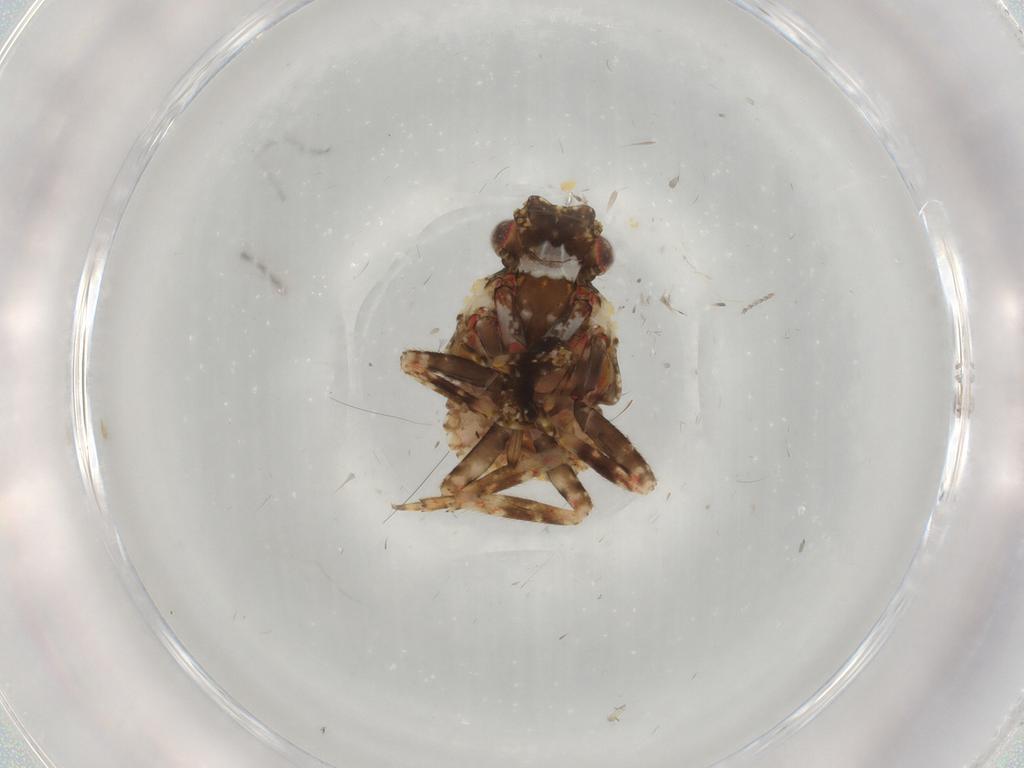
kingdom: Animalia
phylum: Arthropoda
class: Insecta
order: Hemiptera
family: Fulgoridae
